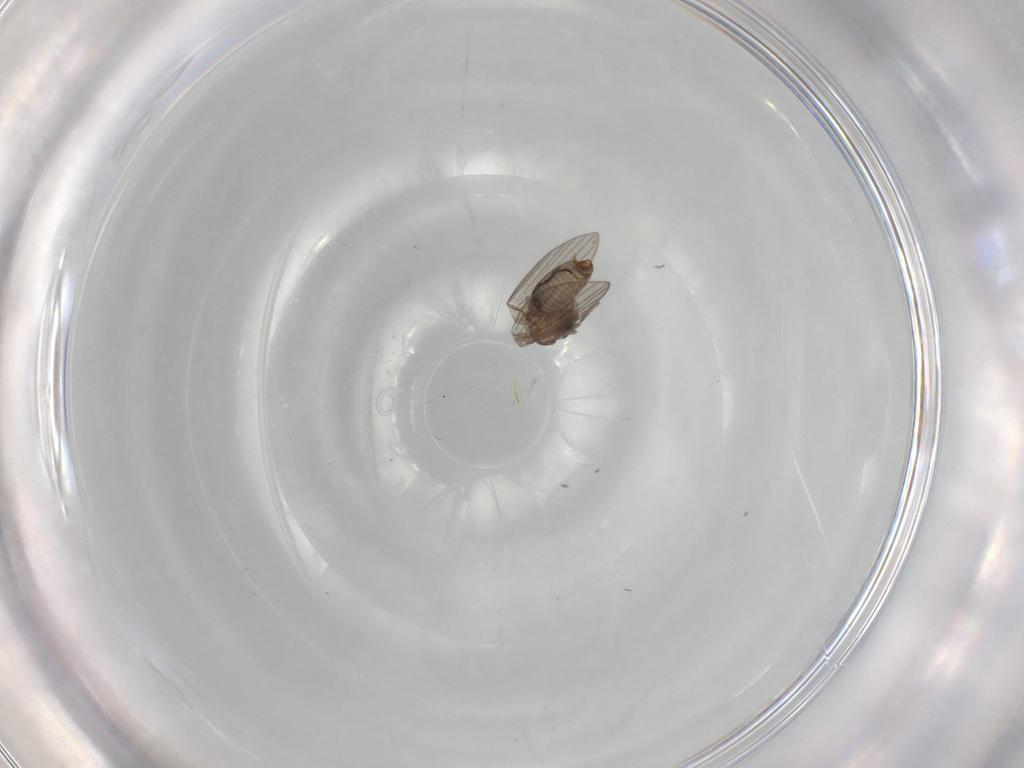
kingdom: Animalia
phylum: Arthropoda
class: Insecta
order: Diptera
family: Psychodidae
